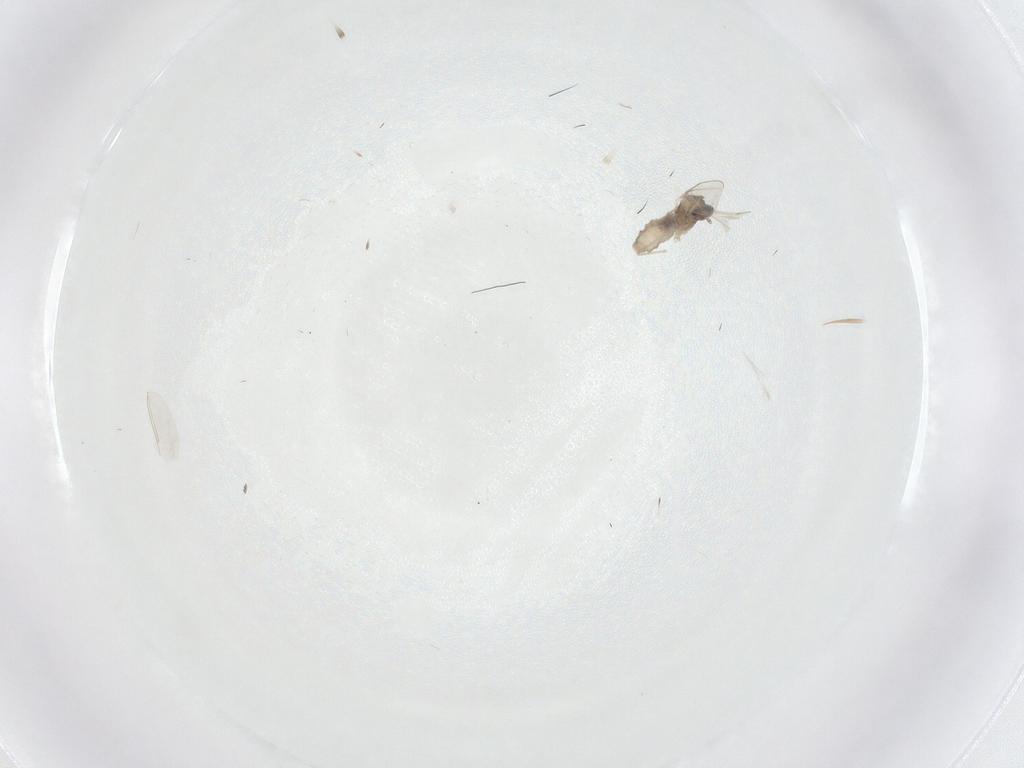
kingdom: Animalia
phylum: Arthropoda
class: Insecta
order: Diptera
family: Cecidomyiidae
